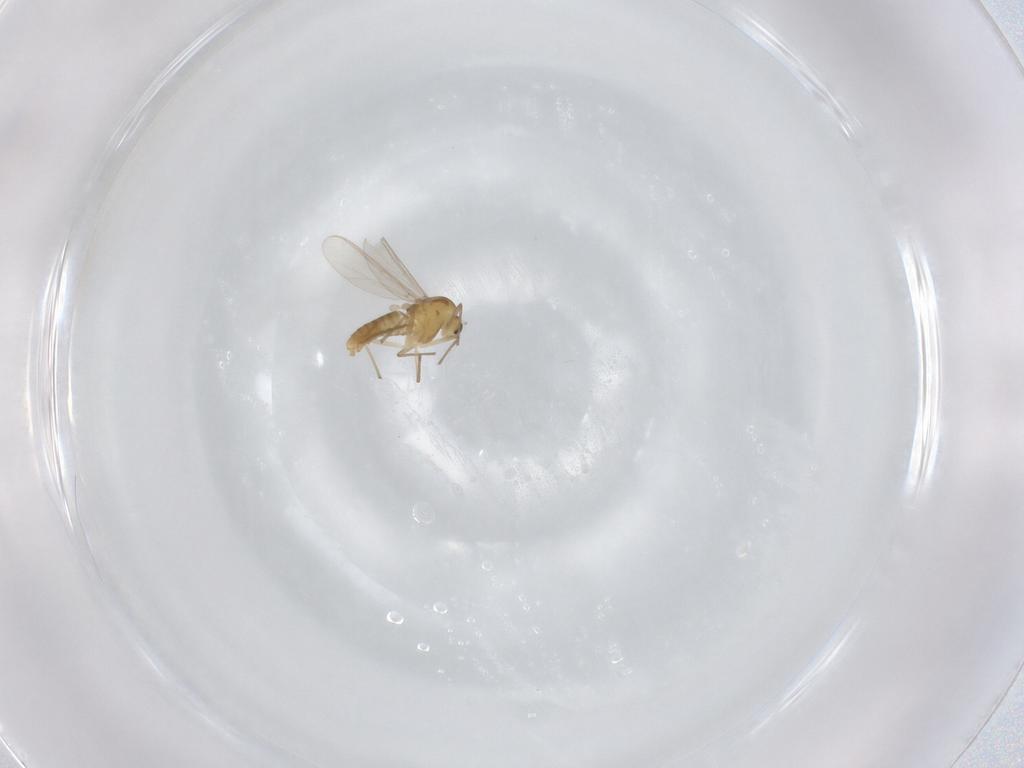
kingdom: Animalia
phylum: Arthropoda
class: Insecta
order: Diptera
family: Chironomidae
